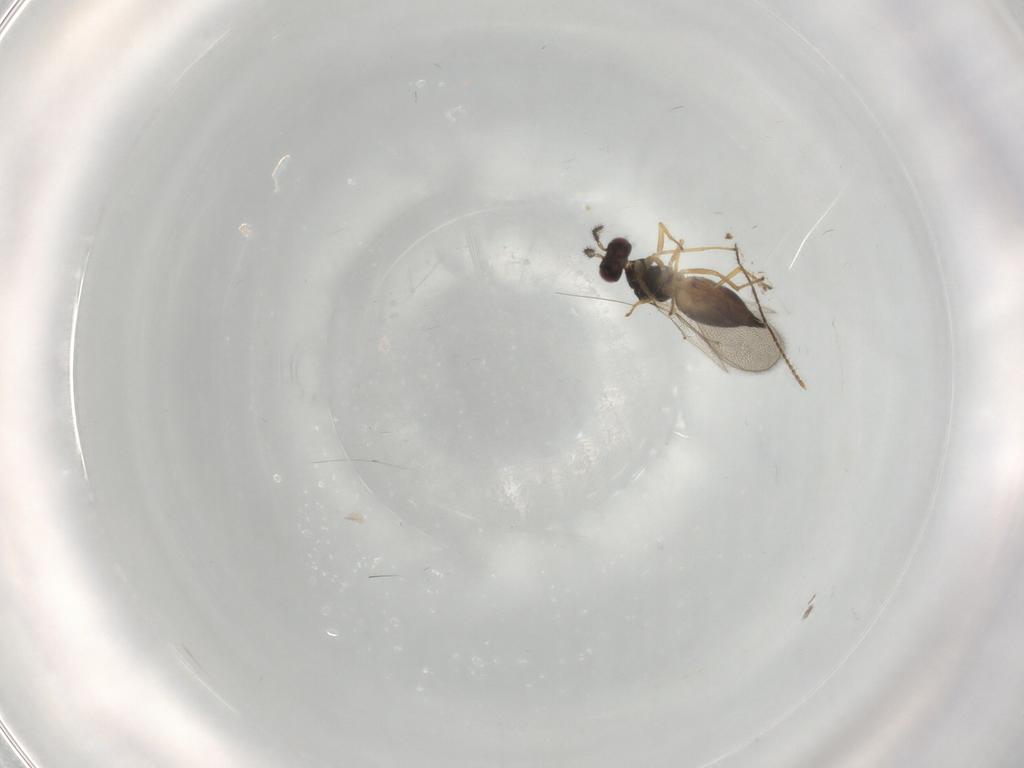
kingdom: Animalia
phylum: Arthropoda
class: Insecta
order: Hymenoptera
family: Eulophidae
